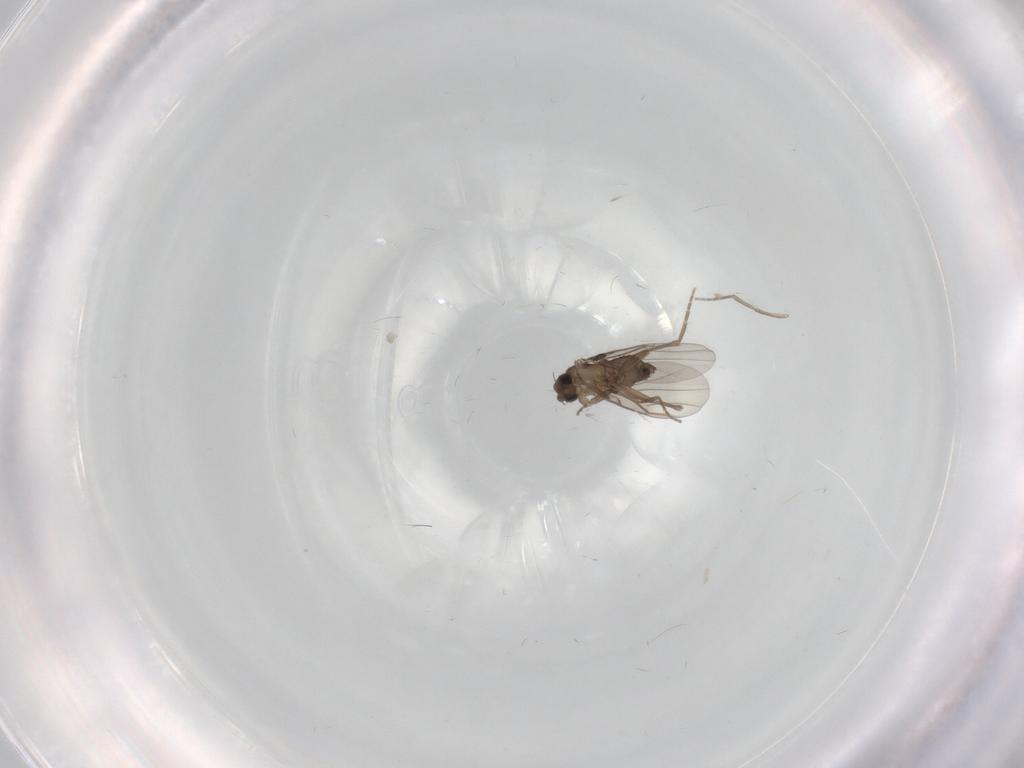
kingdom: Animalia
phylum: Arthropoda
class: Insecta
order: Diptera
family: Phoridae
